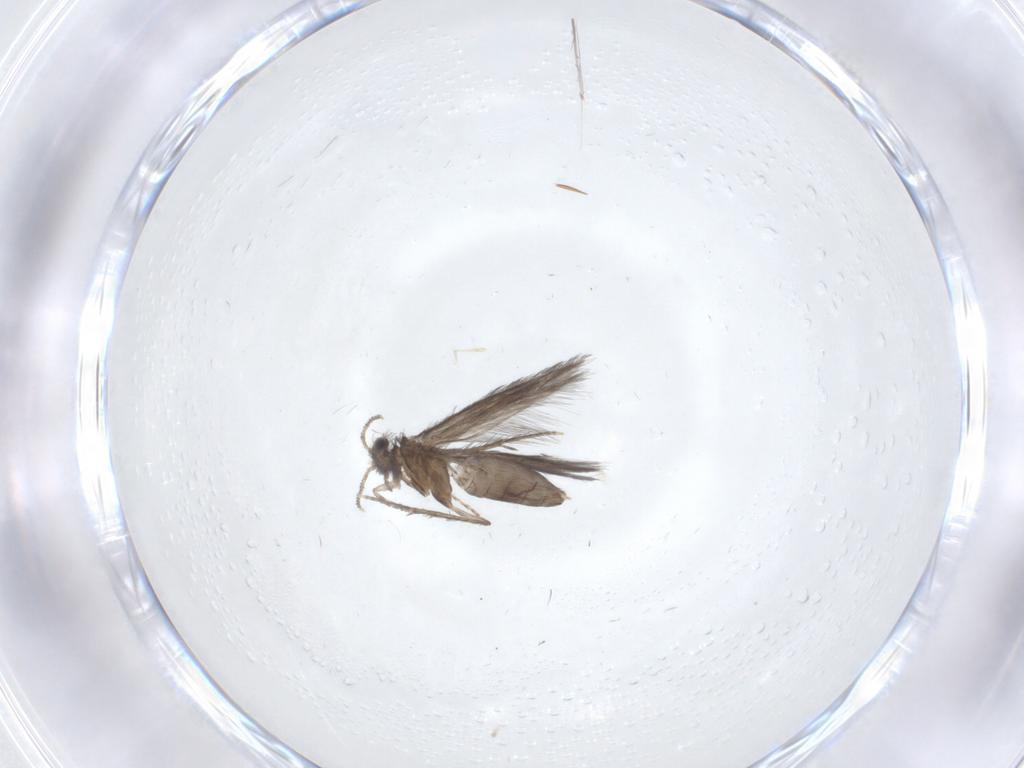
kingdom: Animalia
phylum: Arthropoda
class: Insecta
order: Trichoptera
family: Hydroptilidae
